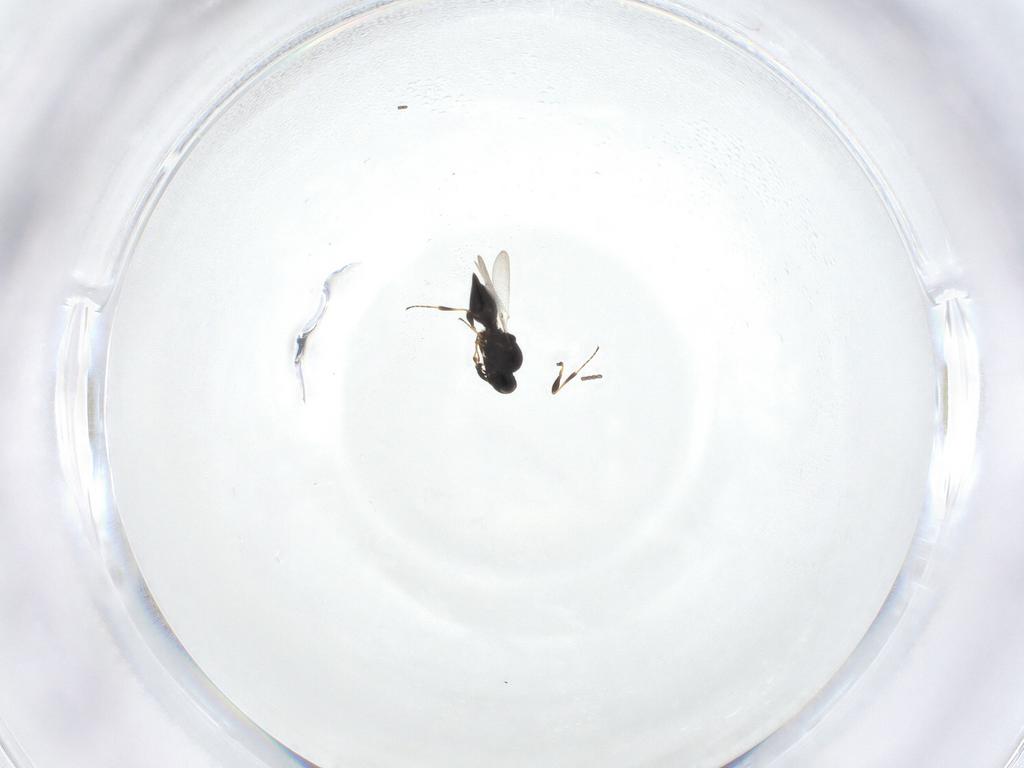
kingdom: Animalia
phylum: Arthropoda
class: Insecta
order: Hymenoptera
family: Platygastridae
